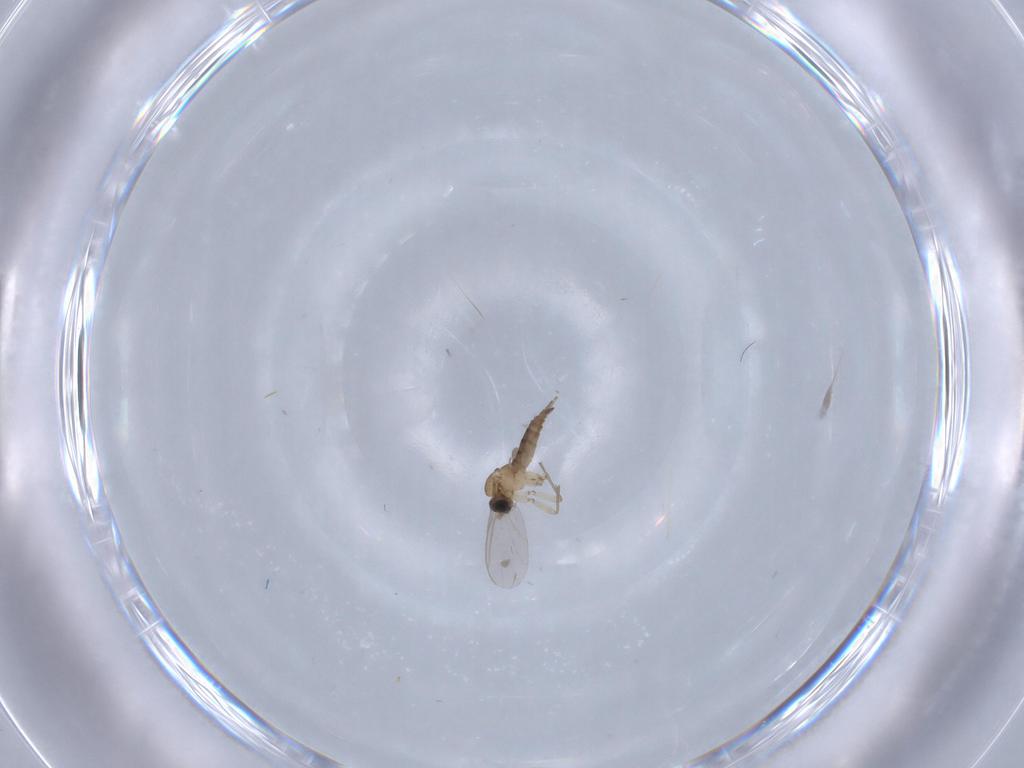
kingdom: Animalia
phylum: Arthropoda
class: Insecta
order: Diptera
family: Sciaridae
